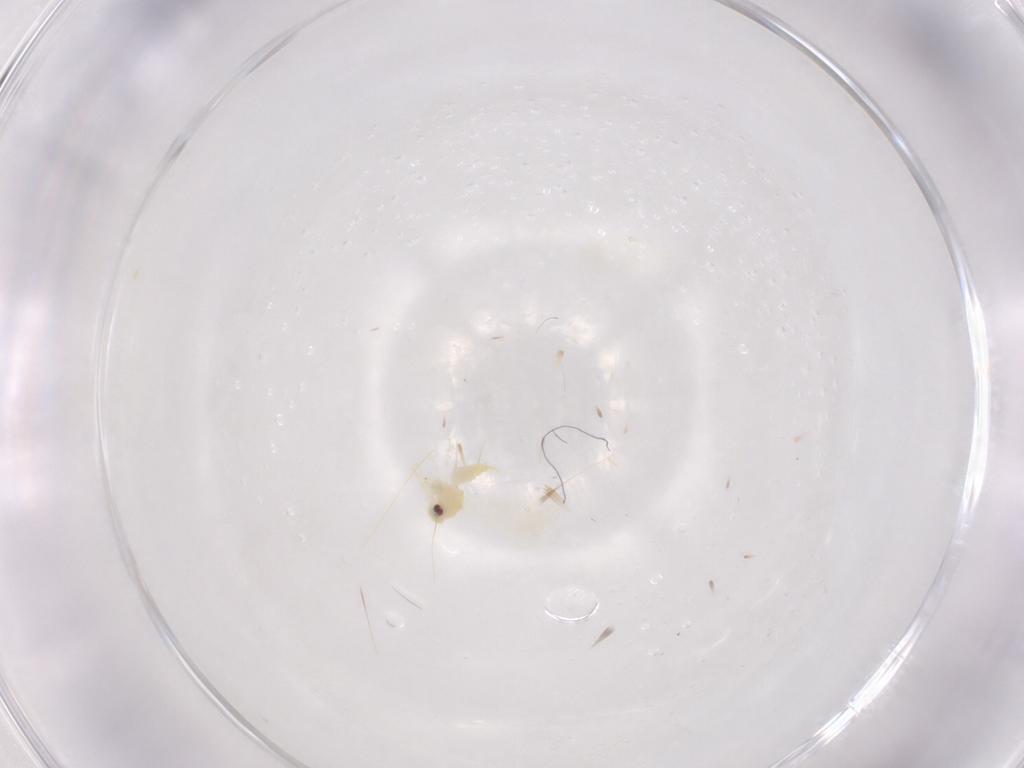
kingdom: Animalia
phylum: Arthropoda
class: Insecta
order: Hemiptera
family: Aleyrodidae
